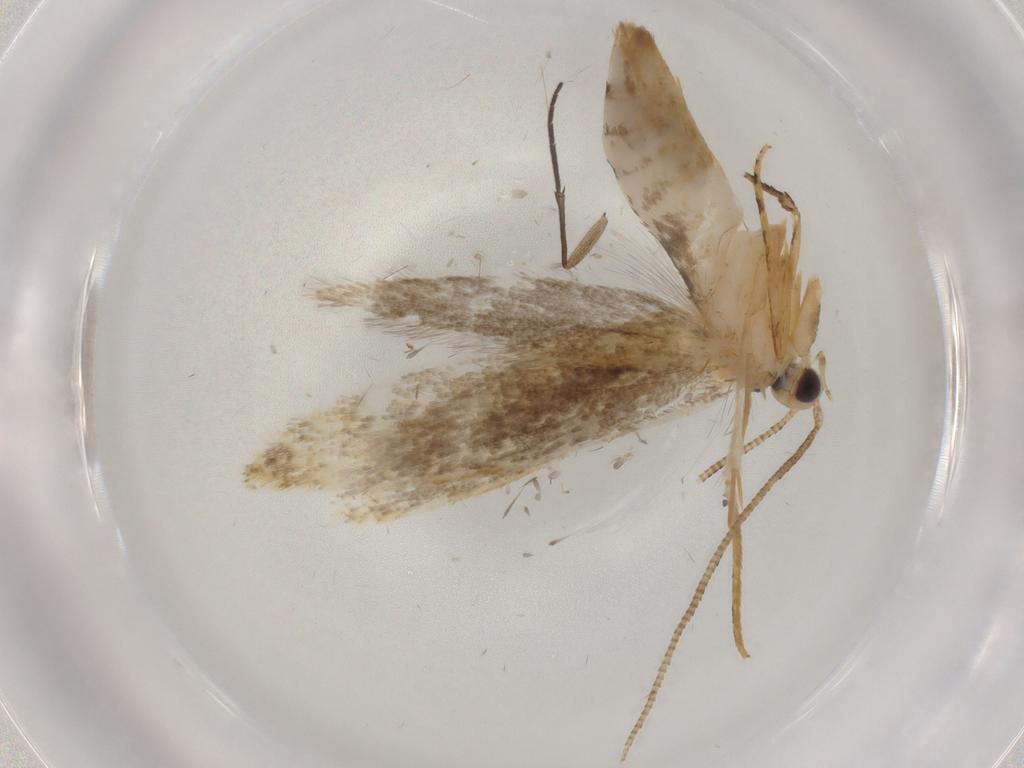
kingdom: Animalia
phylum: Arthropoda
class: Insecta
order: Lepidoptera
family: Tineidae
